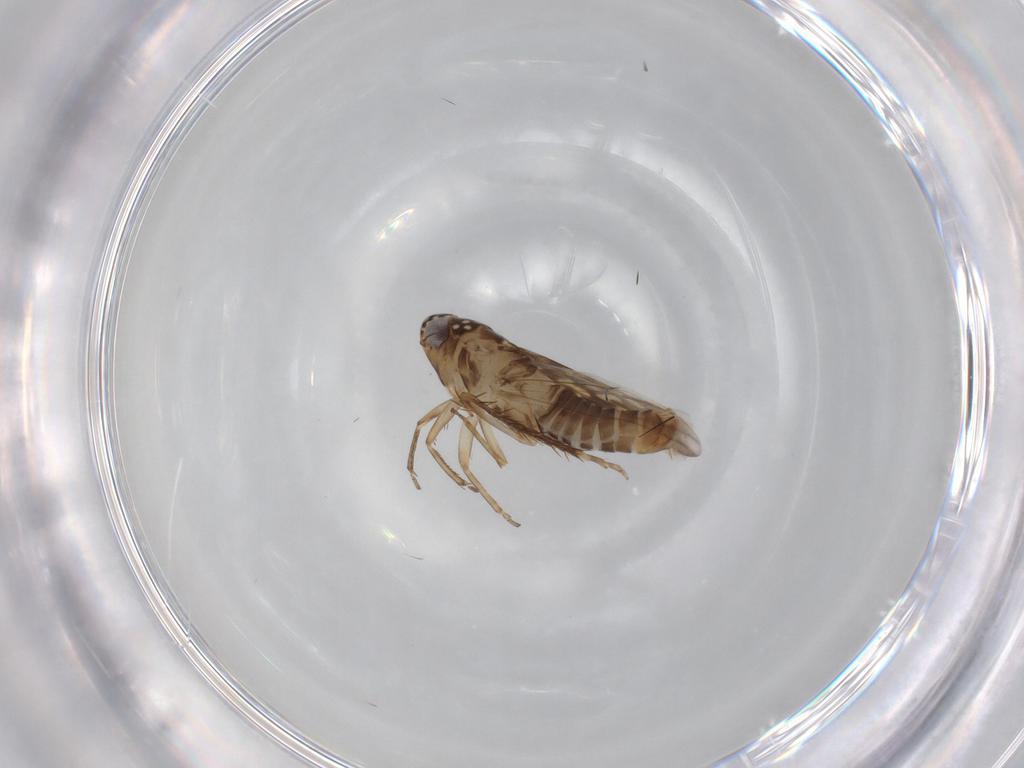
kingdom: Animalia
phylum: Arthropoda
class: Insecta
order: Hemiptera
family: Cicadellidae
